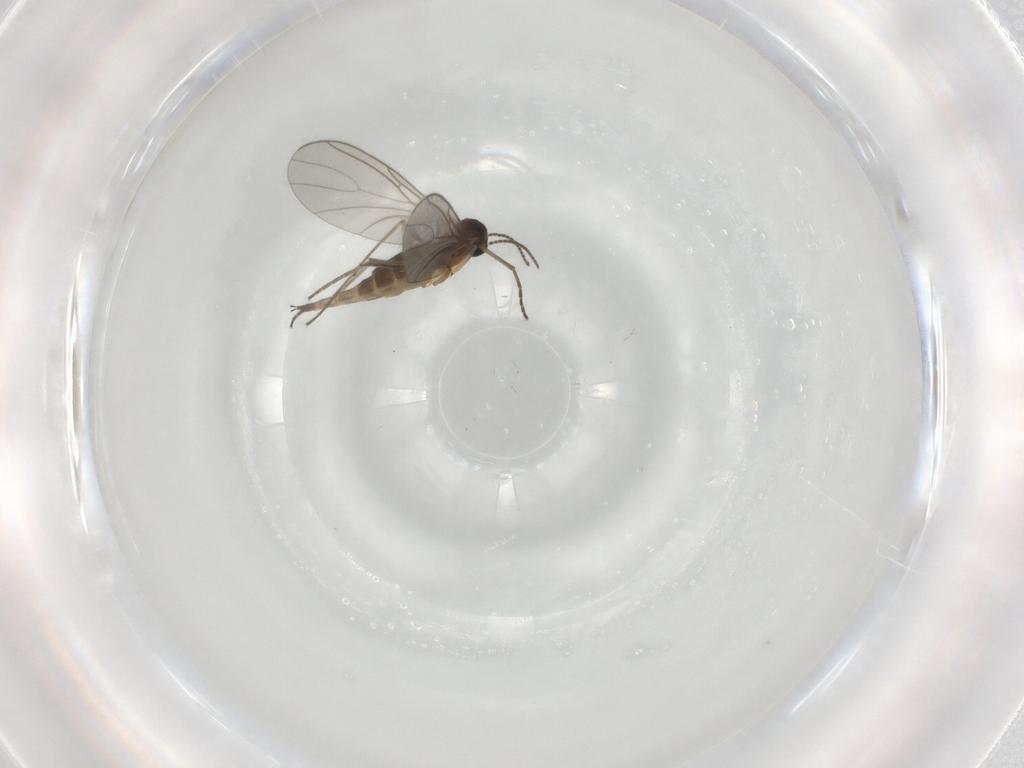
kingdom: Animalia
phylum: Arthropoda
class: Insecta
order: Diptera
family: Sciaridae
